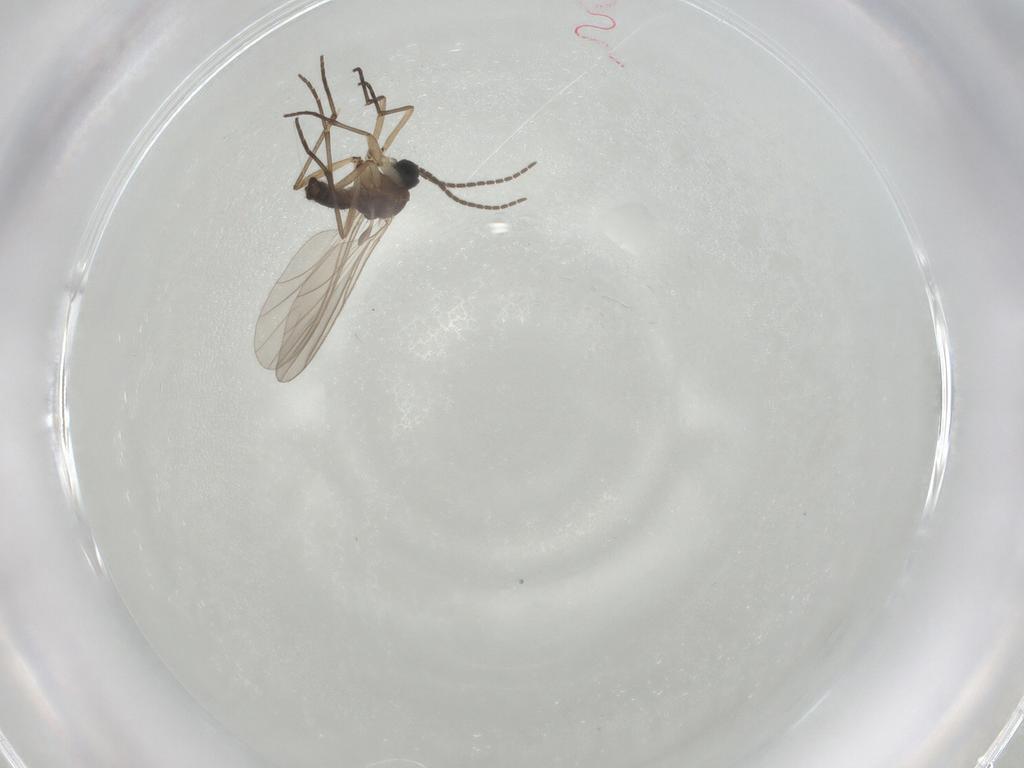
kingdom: Animalia
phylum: Arthropoda
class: Insecta
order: Diptera
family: Sciaridae
